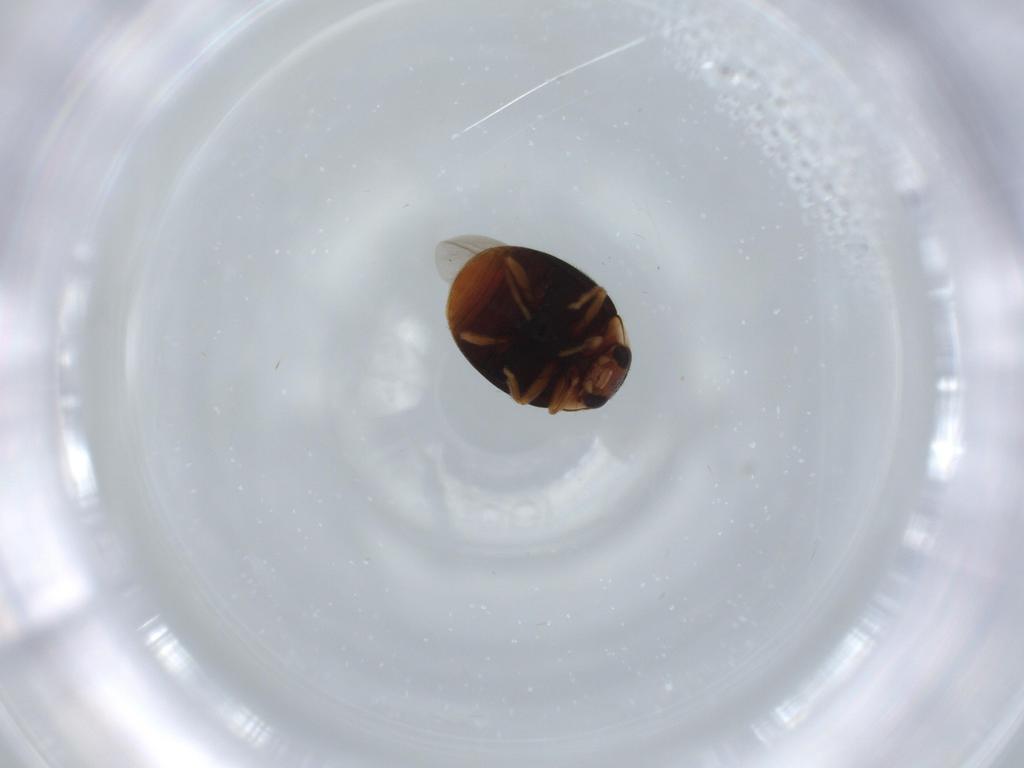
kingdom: Animalia
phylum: Arthropoda
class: Insecta
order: Coleoptera
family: Coccinellidae
